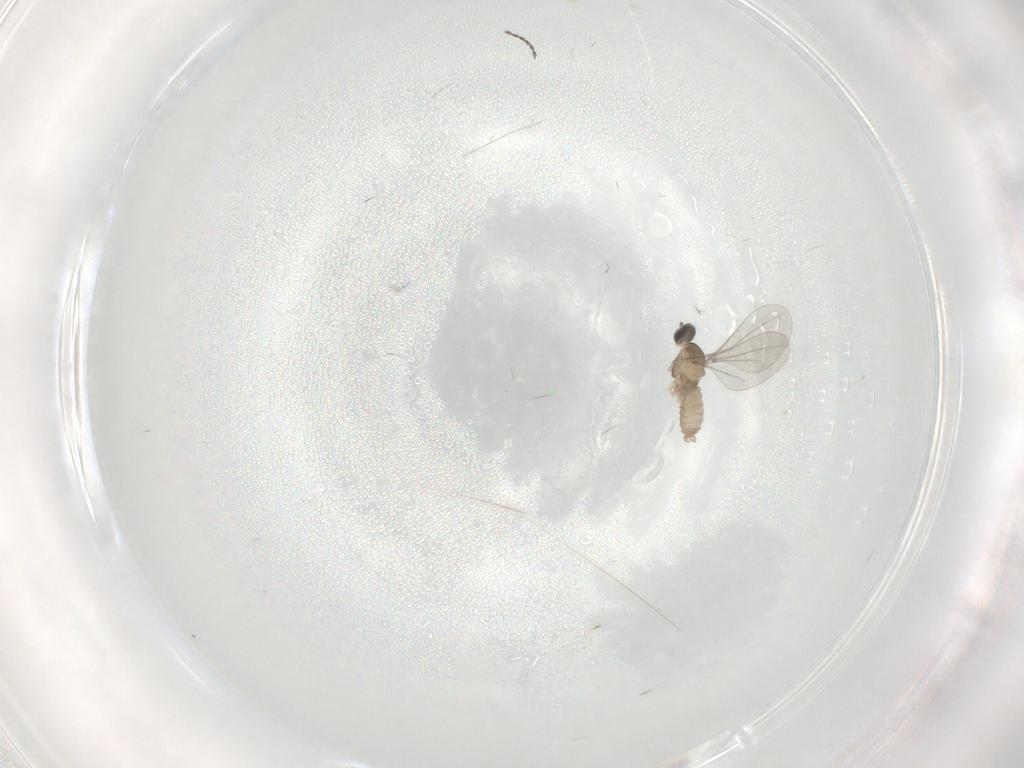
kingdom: Animalia
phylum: Arthropoda
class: Insecta
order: Diptera
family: Cecidomyiidae
